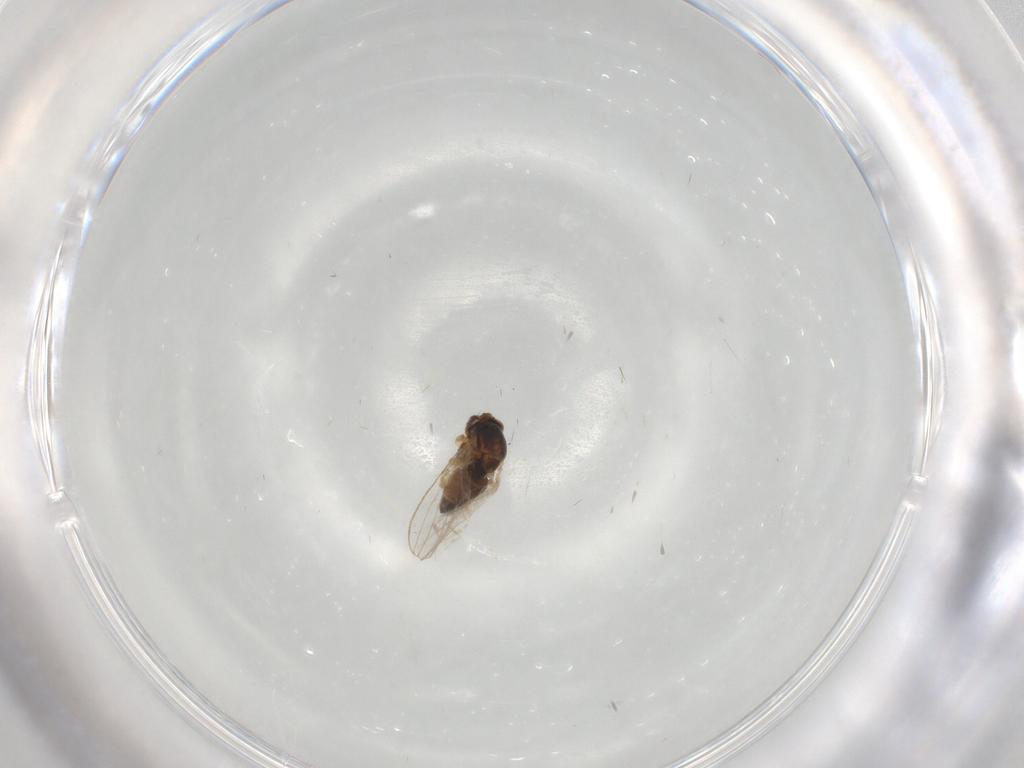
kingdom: Animalia
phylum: Arthropoda
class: Insecta
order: Diptera
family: Chyromyidae
